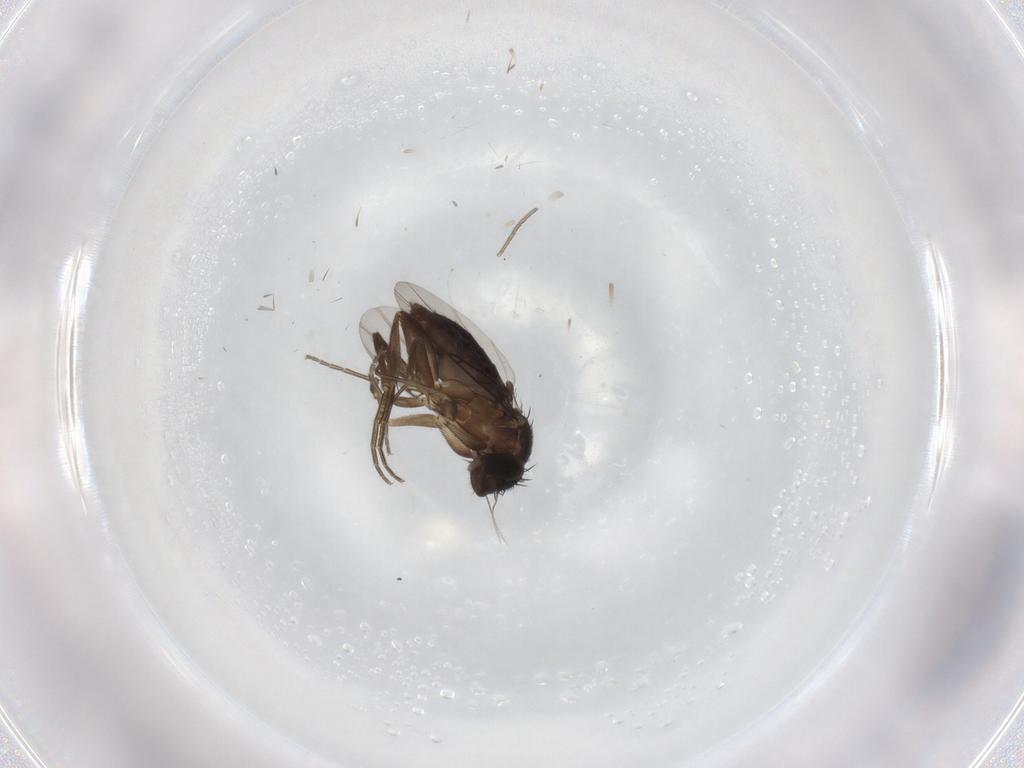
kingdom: Animalia
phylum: Arthropoda
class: Insecta
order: Diptera
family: Phoridae
